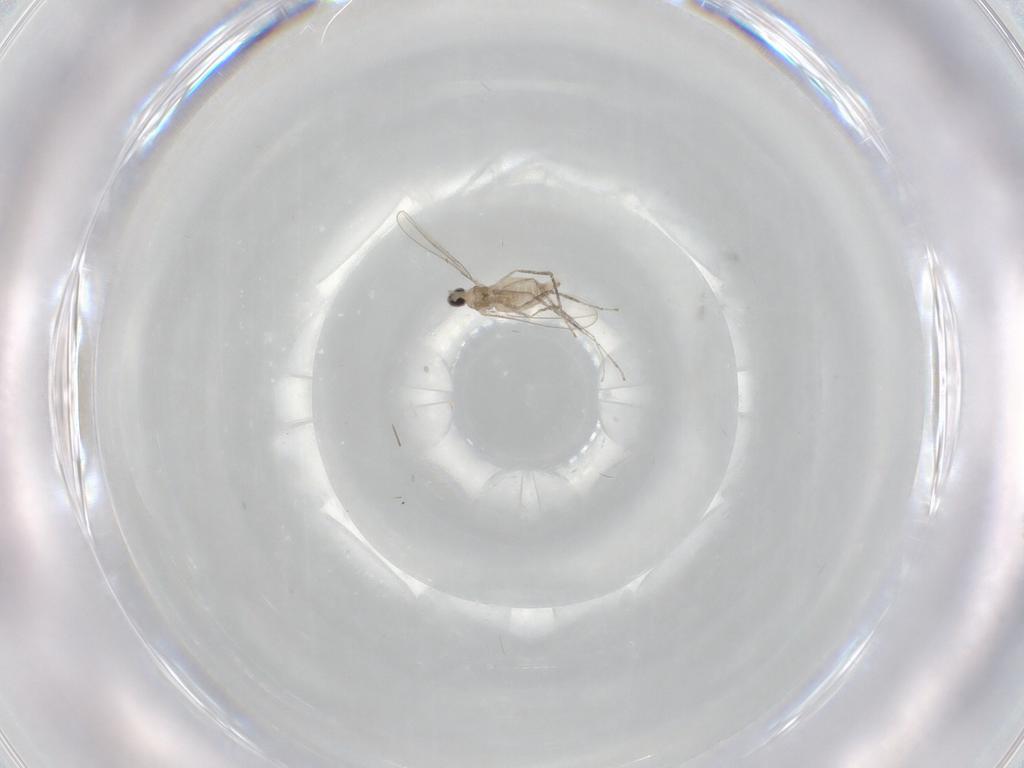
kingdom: Animalia
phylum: Arthropoda
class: Insecta
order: Diptera
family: Cecidomyiidae
